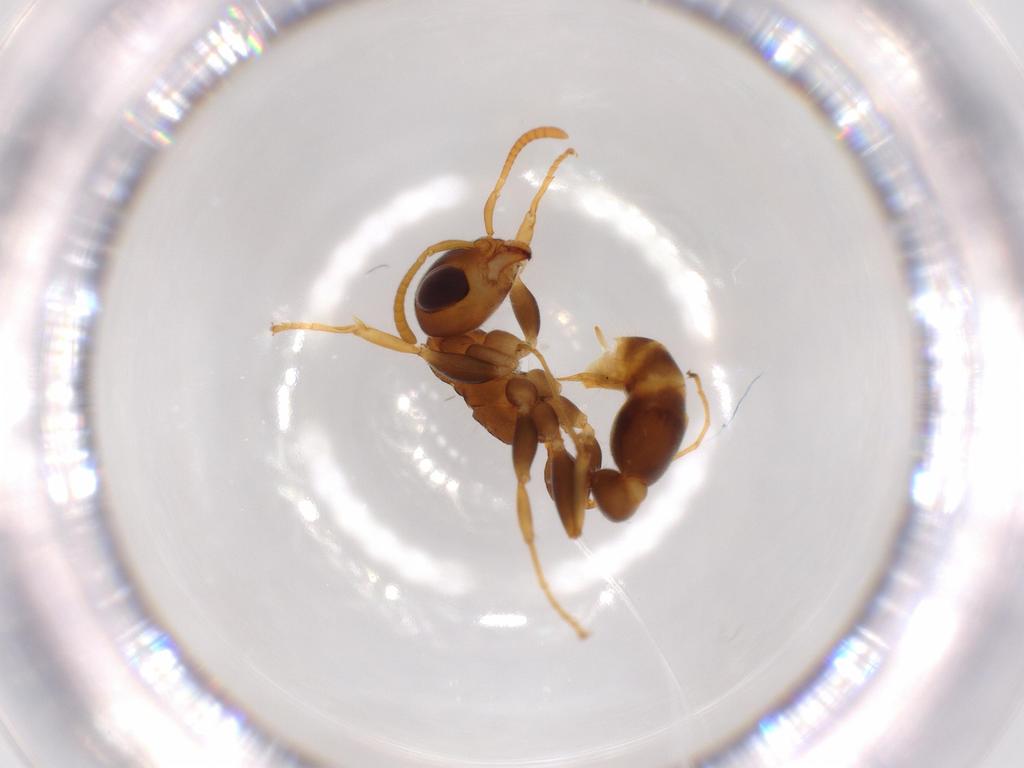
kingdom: Animalia
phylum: Arthropoda
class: Insecta
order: Hymenoptera
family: Formicidae
